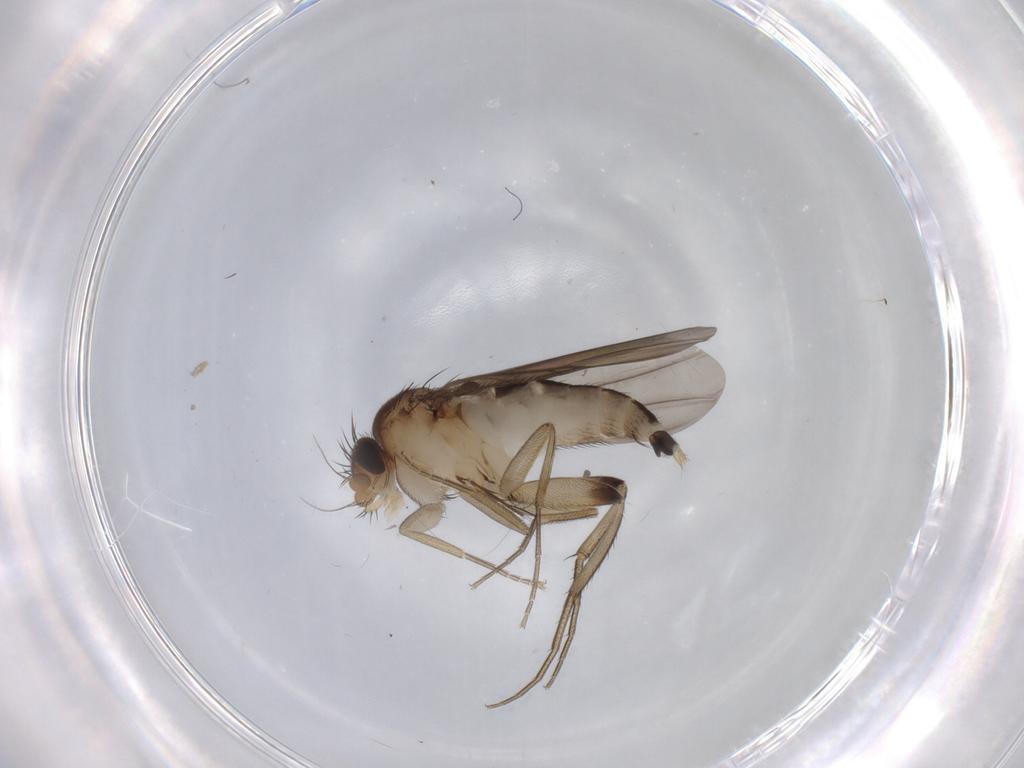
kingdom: Animalia
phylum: Arthropoda
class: Insecta
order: Diptera
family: Phoridae
